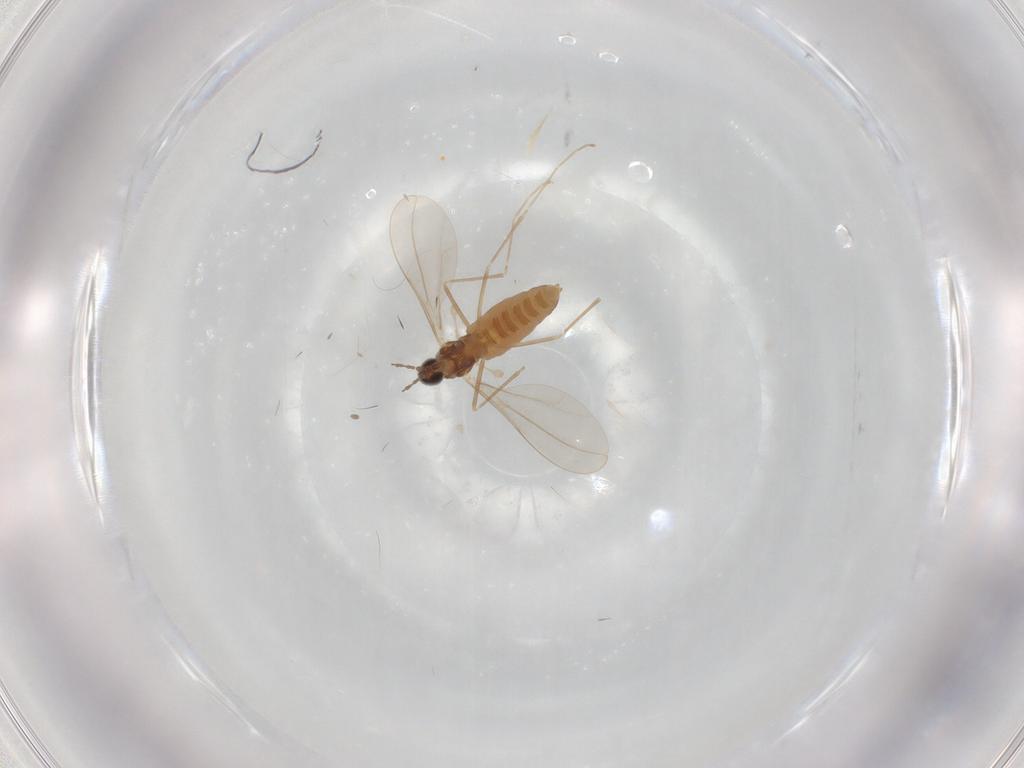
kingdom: Animalia
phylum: Arthropoda
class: Insecta
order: Diptera
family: Cecidomyiidae
